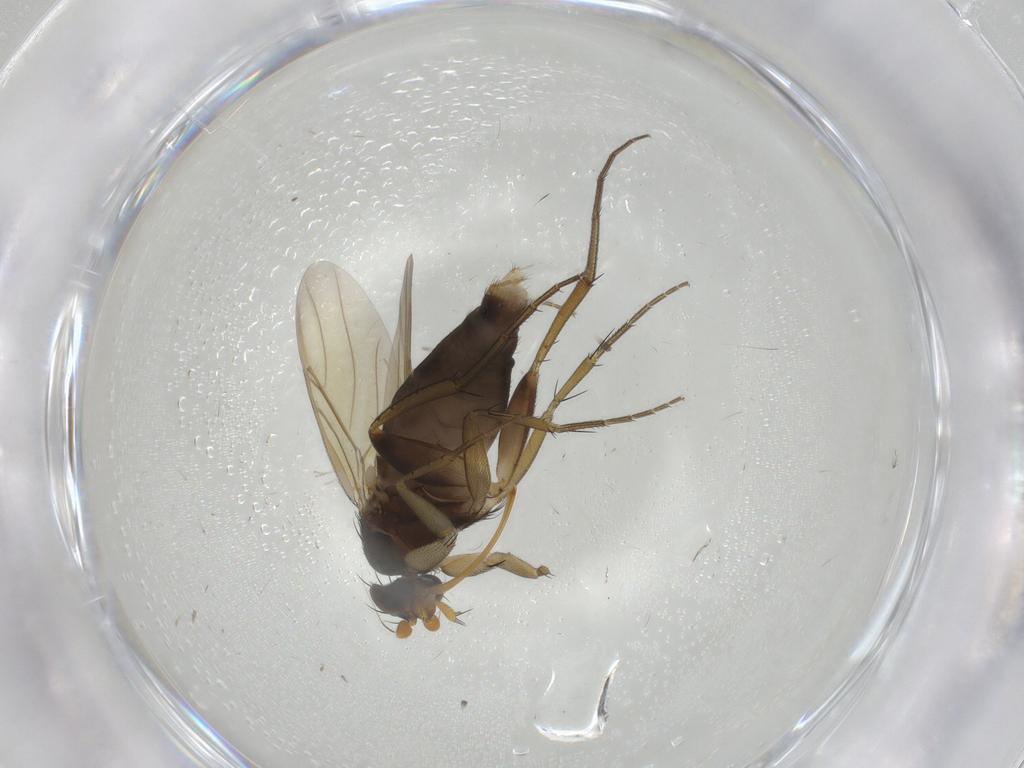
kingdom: Animalia
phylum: Arthropoda
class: Insecta
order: Diptera
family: Phoridae
